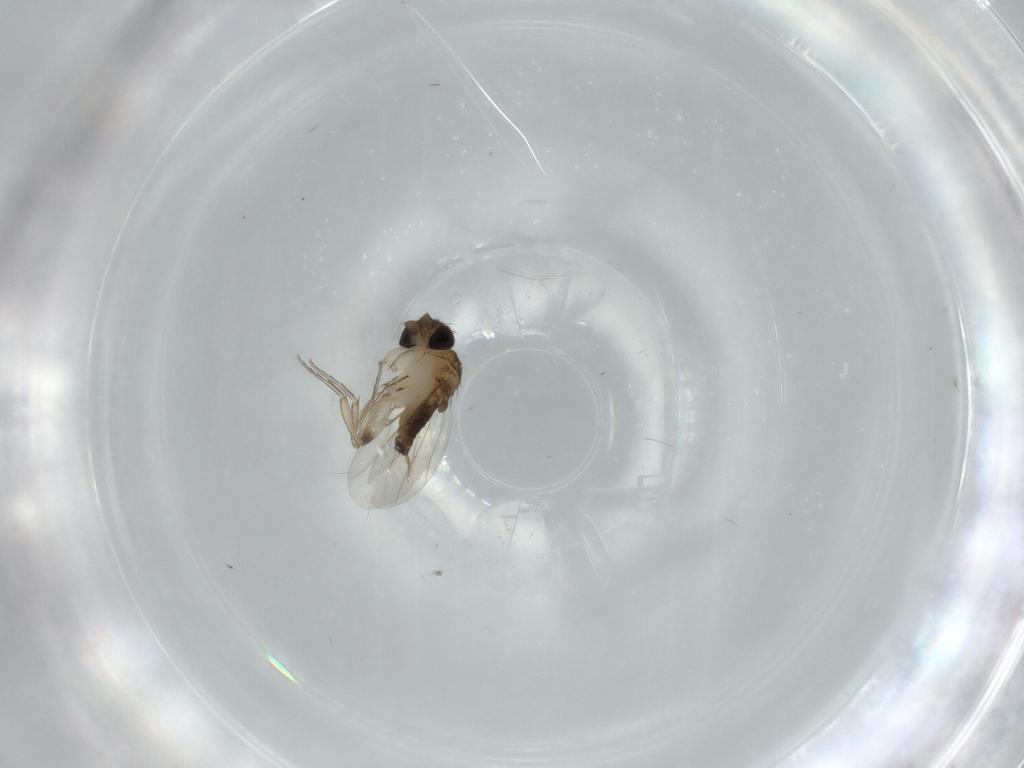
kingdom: Animalia
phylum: Arthropoda
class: Insecta
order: Diptera
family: Phoridae
